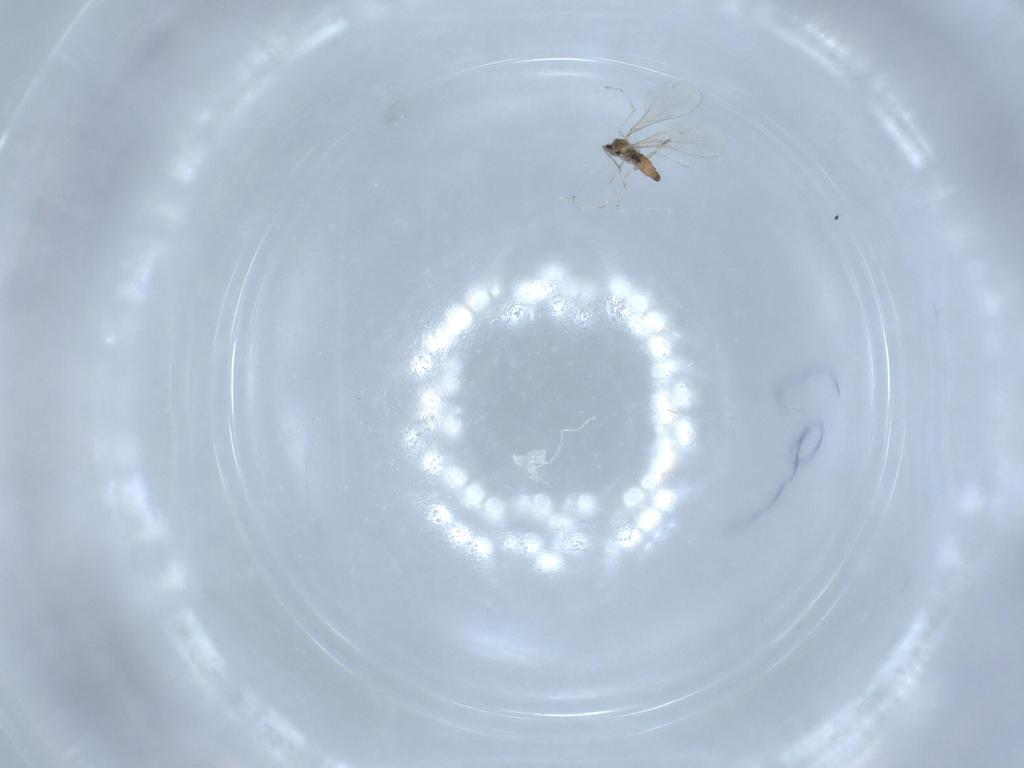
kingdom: Animalia
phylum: Arthropoda
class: Insecta
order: Diptera
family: Cecidomyiidae
